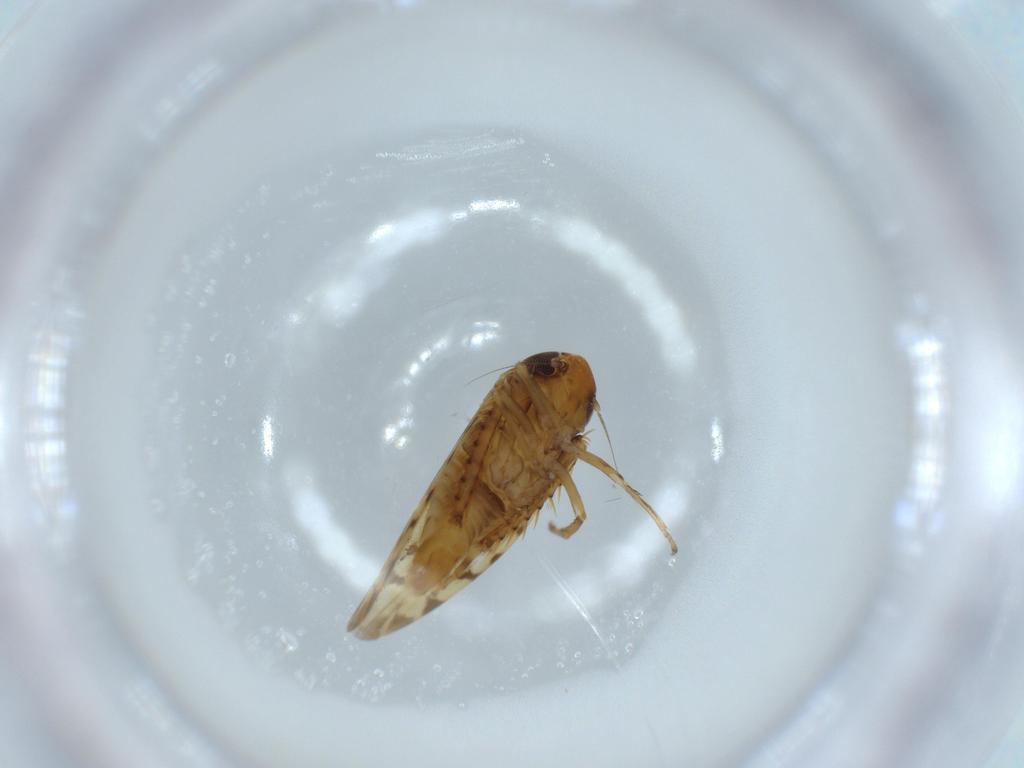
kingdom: Animalia
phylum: Arthropoda
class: Insecta
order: Hemiptera
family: Cicadellidae
